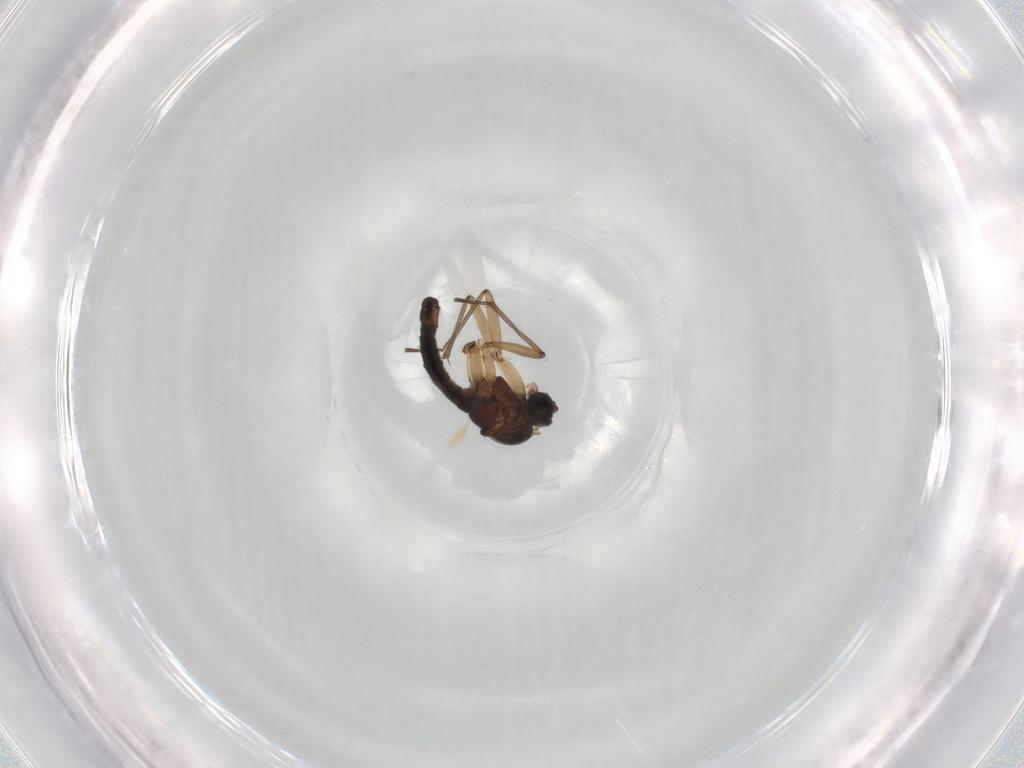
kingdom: Animalia
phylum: Arthropoda
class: Insecta
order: Diptera
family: Sciaridae
